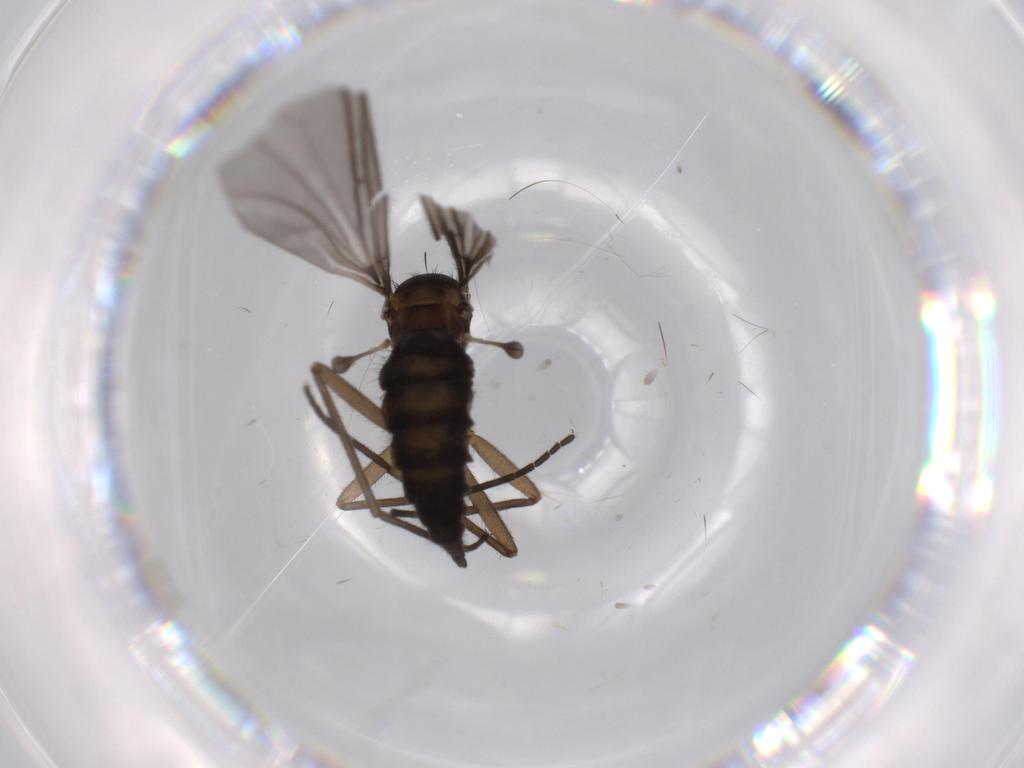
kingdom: Animalia
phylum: Arthropoda
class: Insecta
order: Diptera
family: Sciaridae
